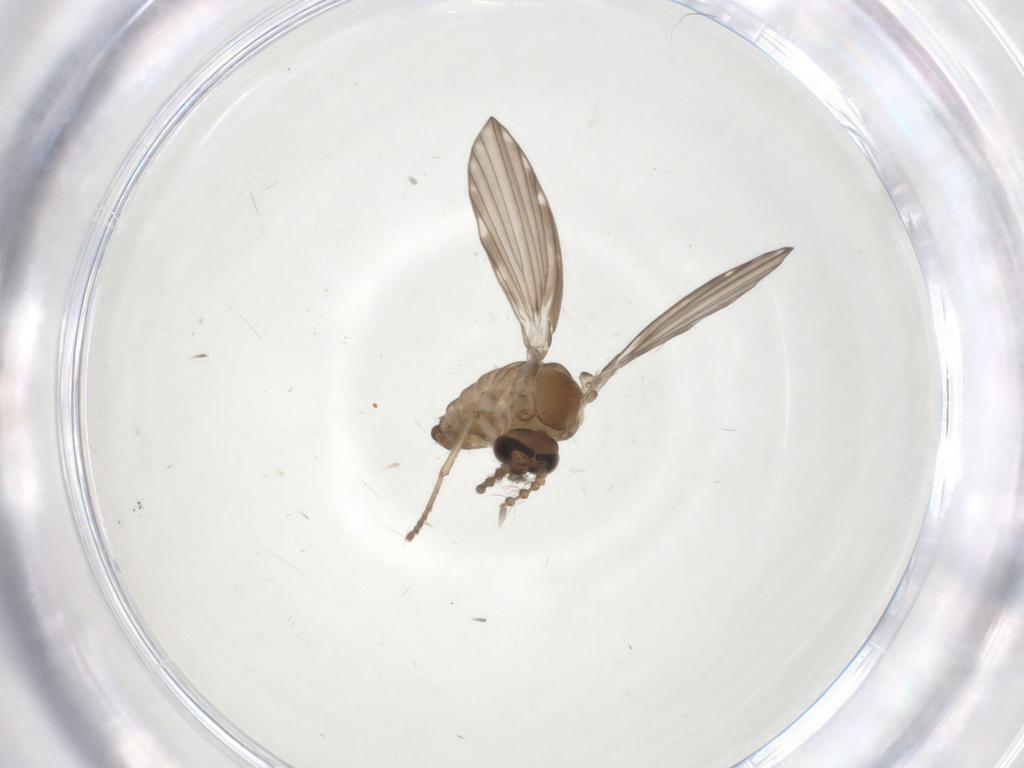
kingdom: Animalia
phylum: Arthropoda
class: Insecta
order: Diptera
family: Psychodidae
